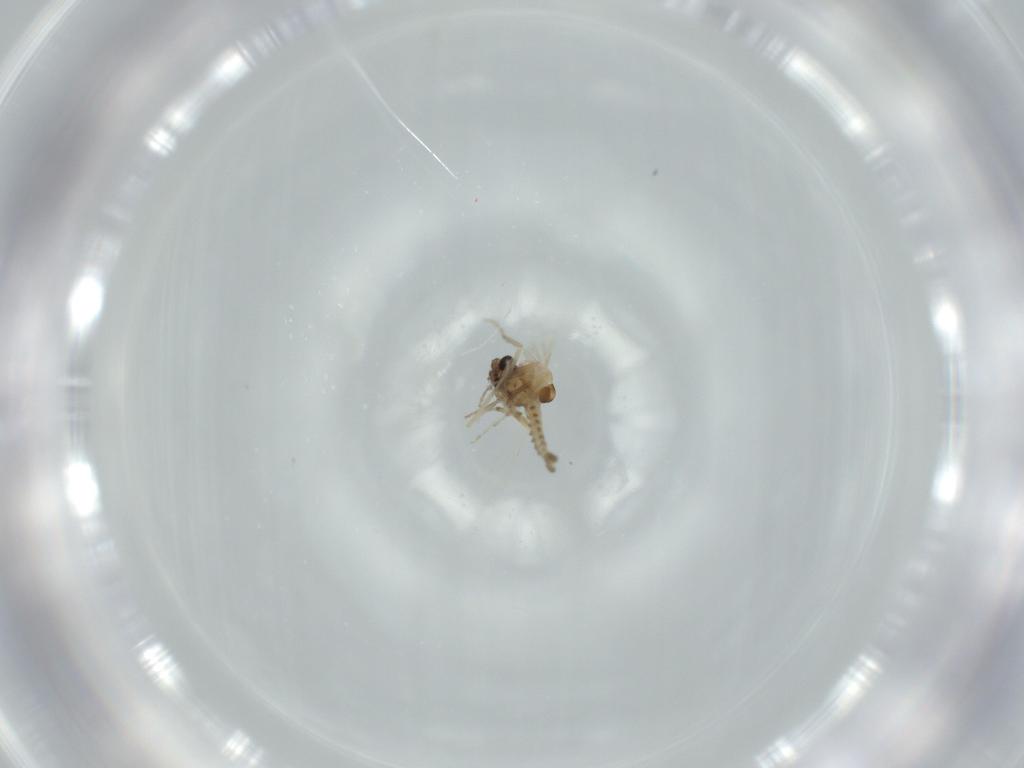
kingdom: Animalia
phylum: Arthropoda
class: Insecta
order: Diptera
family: Ceratopogonidae
